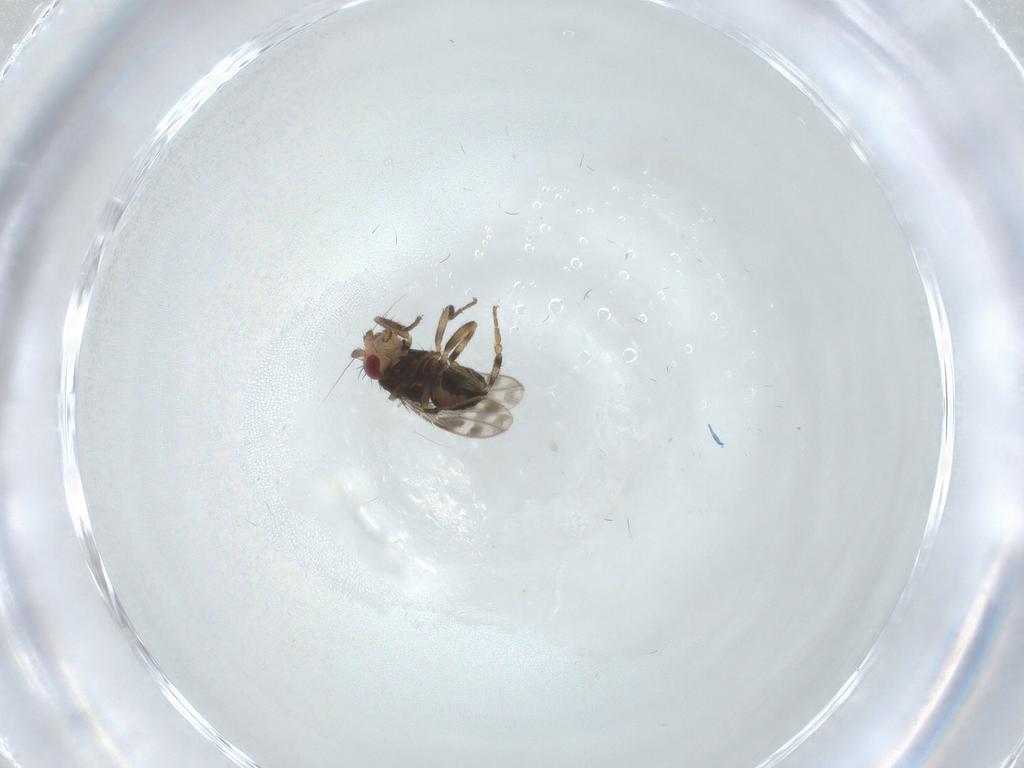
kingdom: Animalia
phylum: Arthropoda
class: Insecta
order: Diptera
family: Sphaeroceridae
